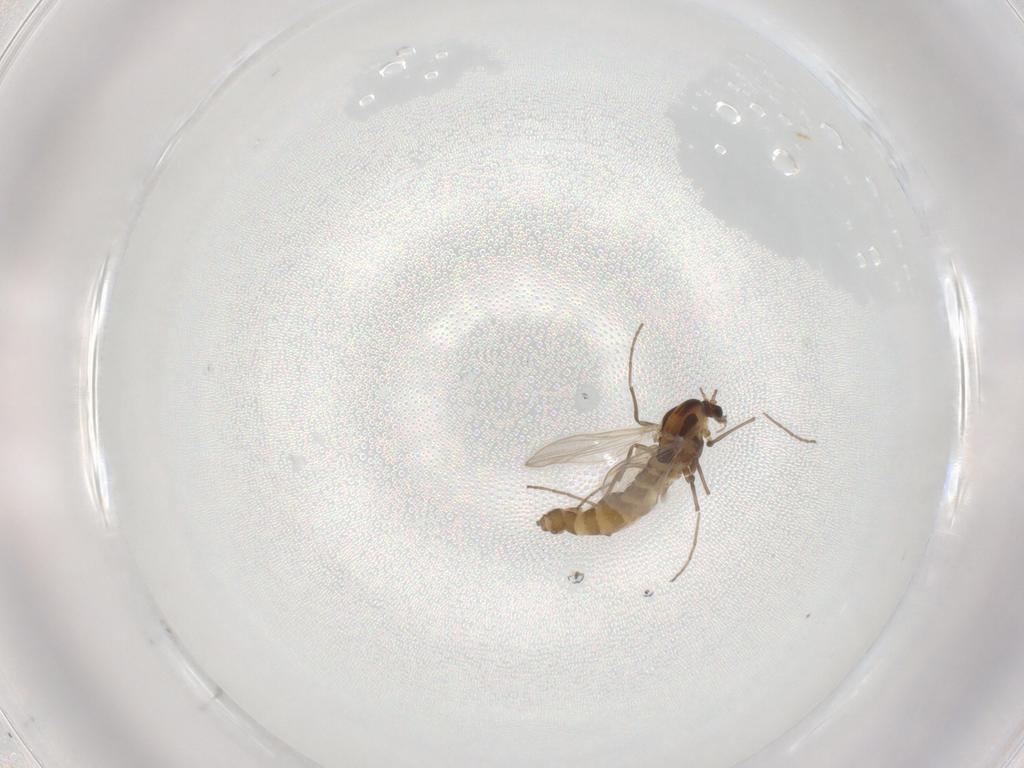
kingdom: Animalia
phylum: Arthropoda
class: Insecta
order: Diptera
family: Chironomidae
